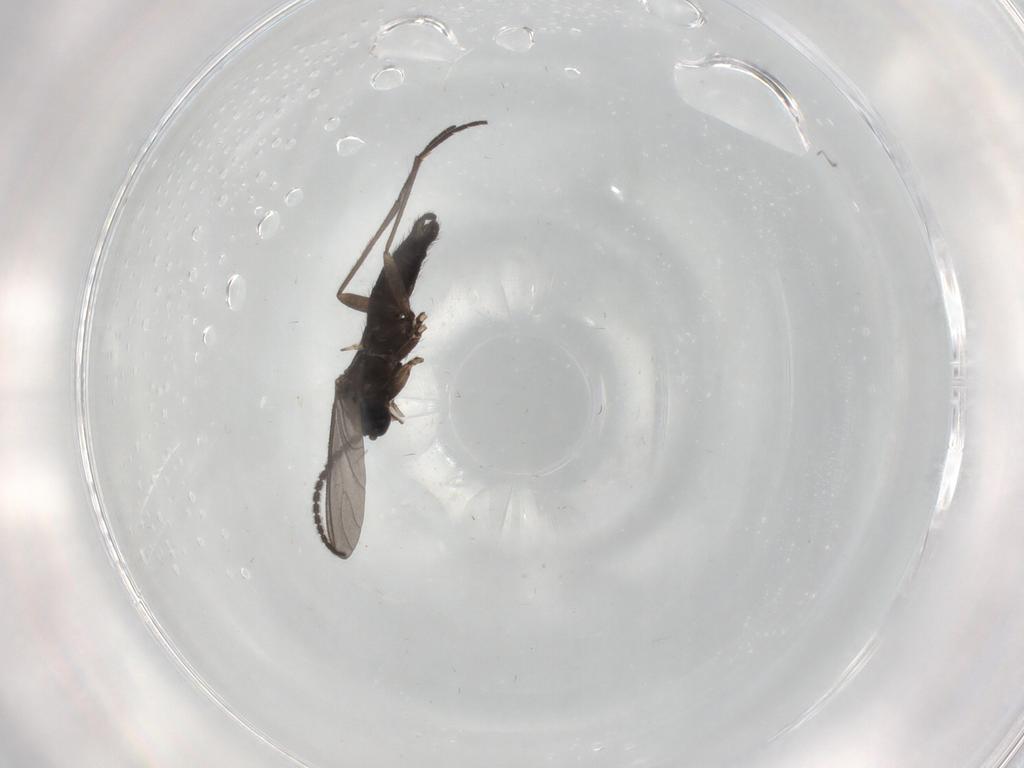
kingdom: Animalia
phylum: Arthropoda
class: Insecta
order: Diptera
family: Sciaridae
